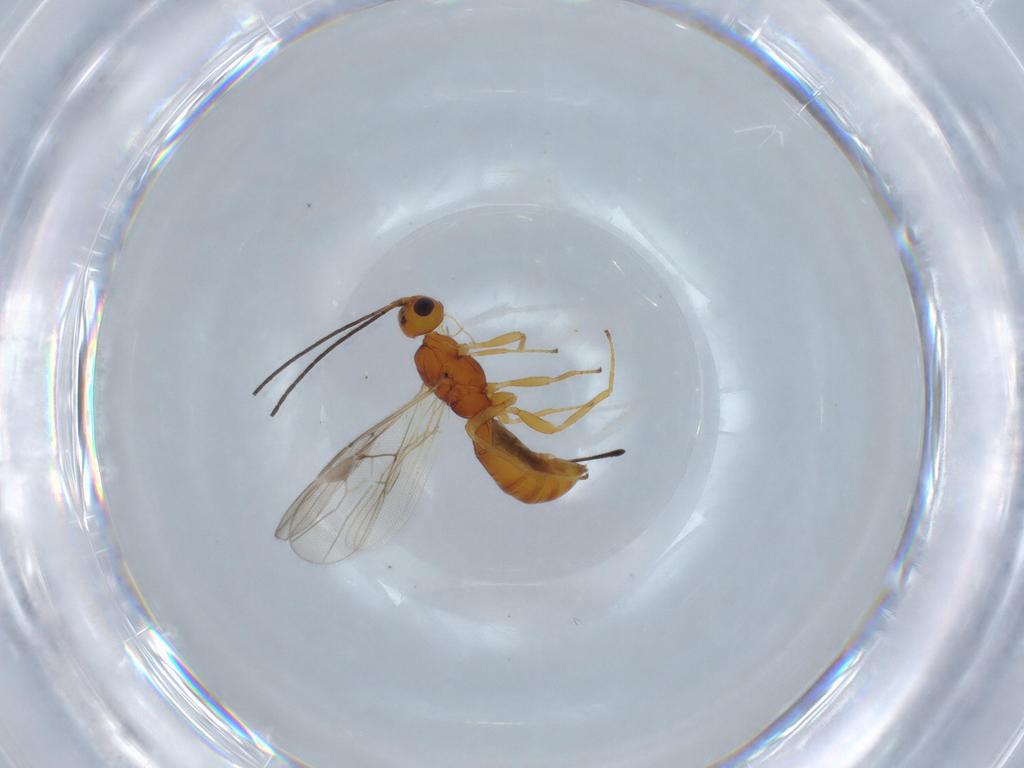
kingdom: Animalia
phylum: Arthropoda
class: Insecta
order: Hymenoptera
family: Braconidae
